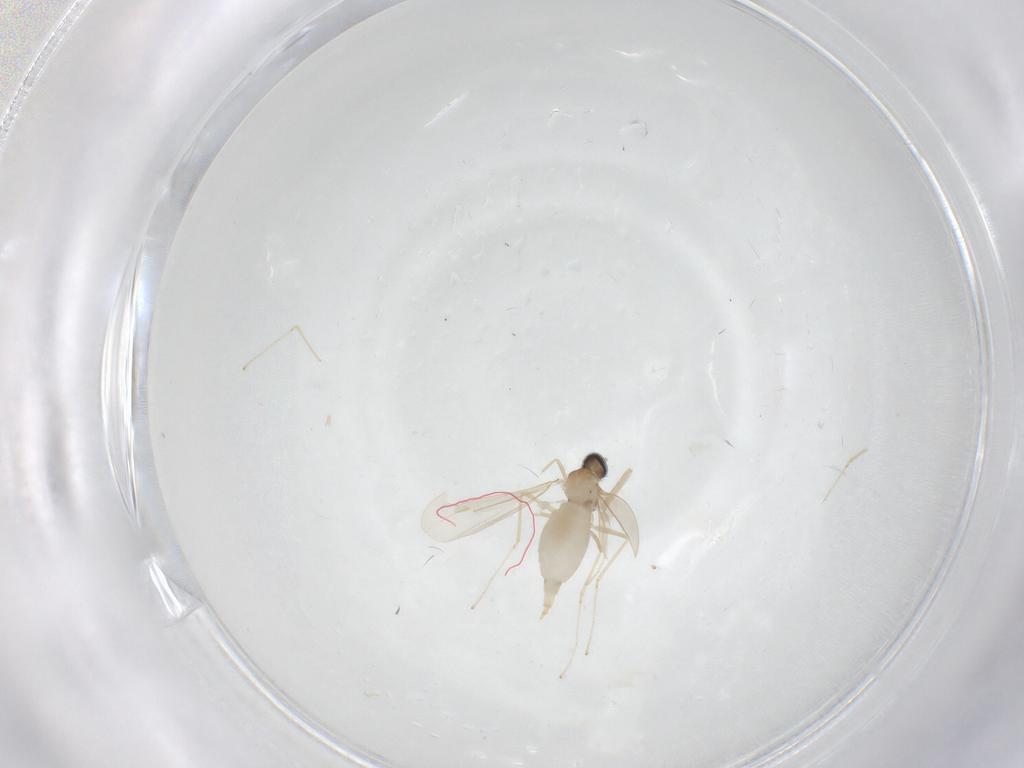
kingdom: Animalia
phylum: Arthropoda
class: Insecta
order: Diptera
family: Cecidomyiidae
